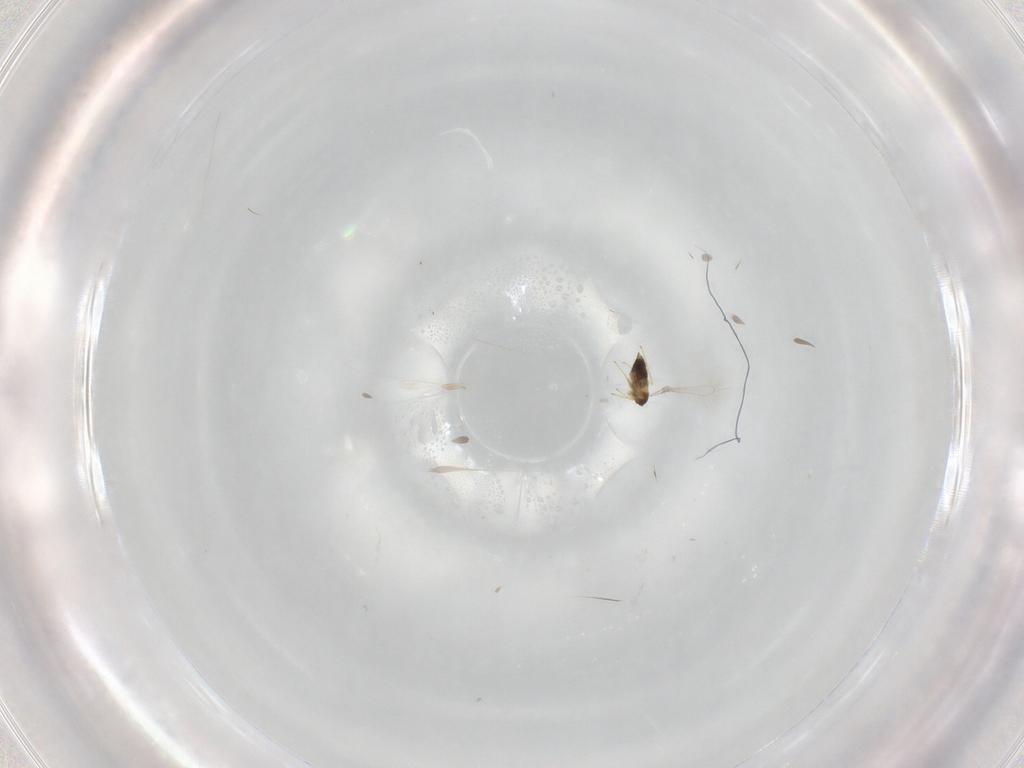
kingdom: Animalia
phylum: Arthropoda
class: Insecta
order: Hymenoptera
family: Mymaridae
